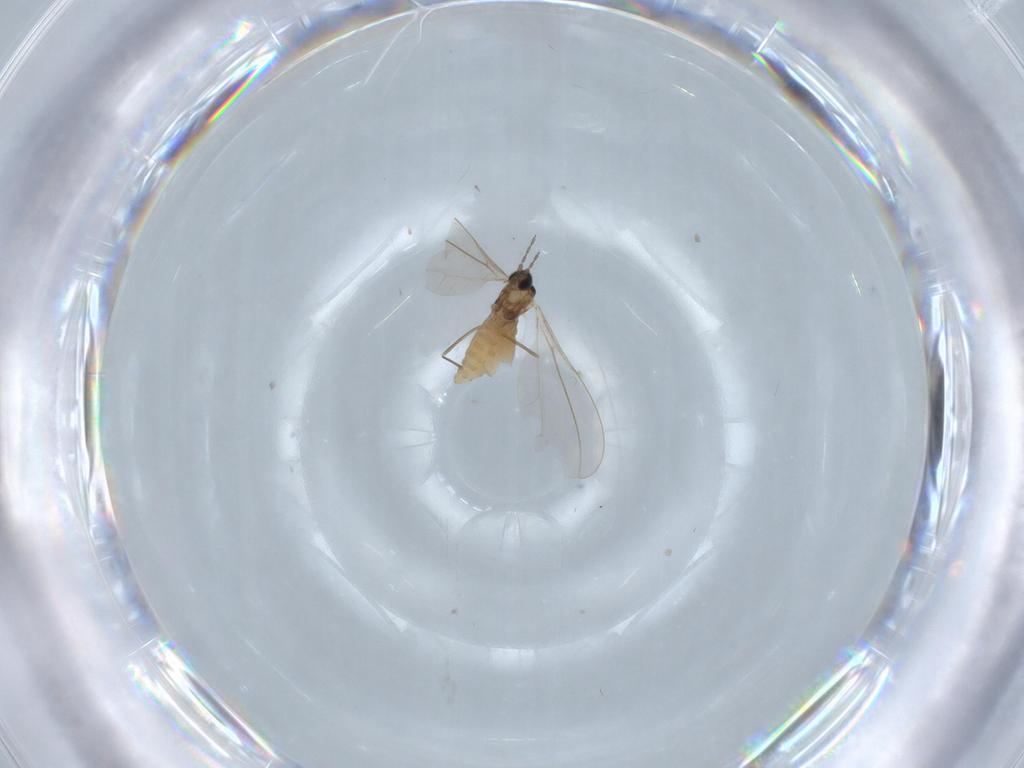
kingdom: Animalia
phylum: Arthropoda
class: Insecta
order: Diptera
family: Cecidomyiidae
